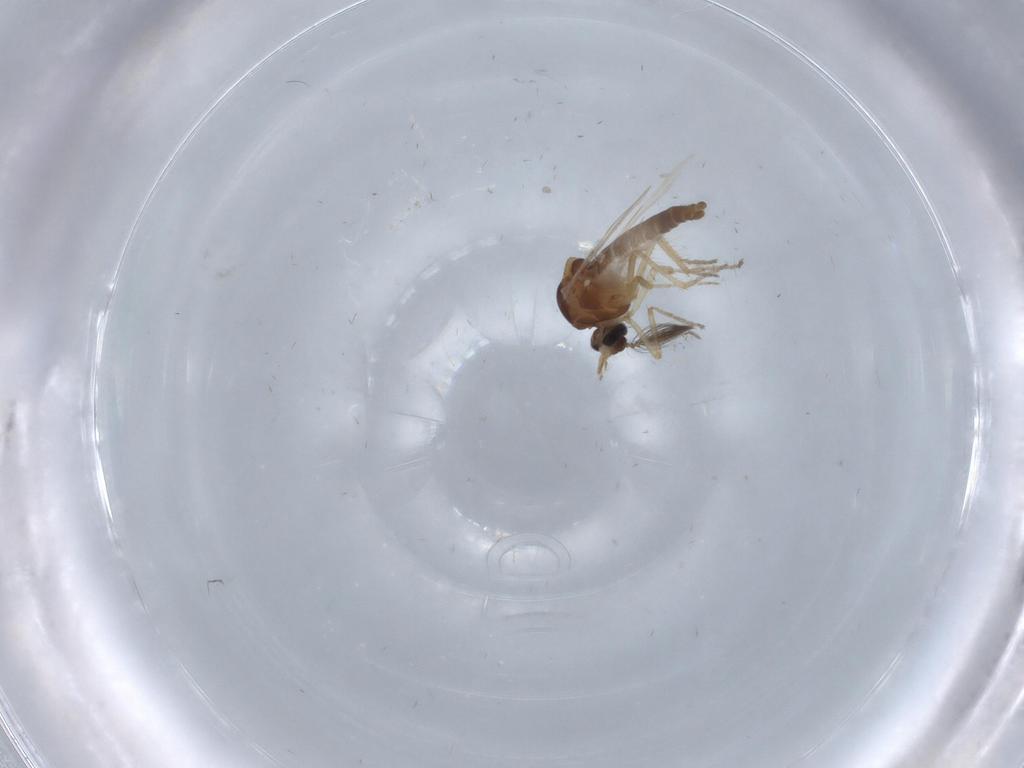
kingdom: Animalia
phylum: Arthropoda
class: Insecta
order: Diptera
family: Ceratopogonidae
